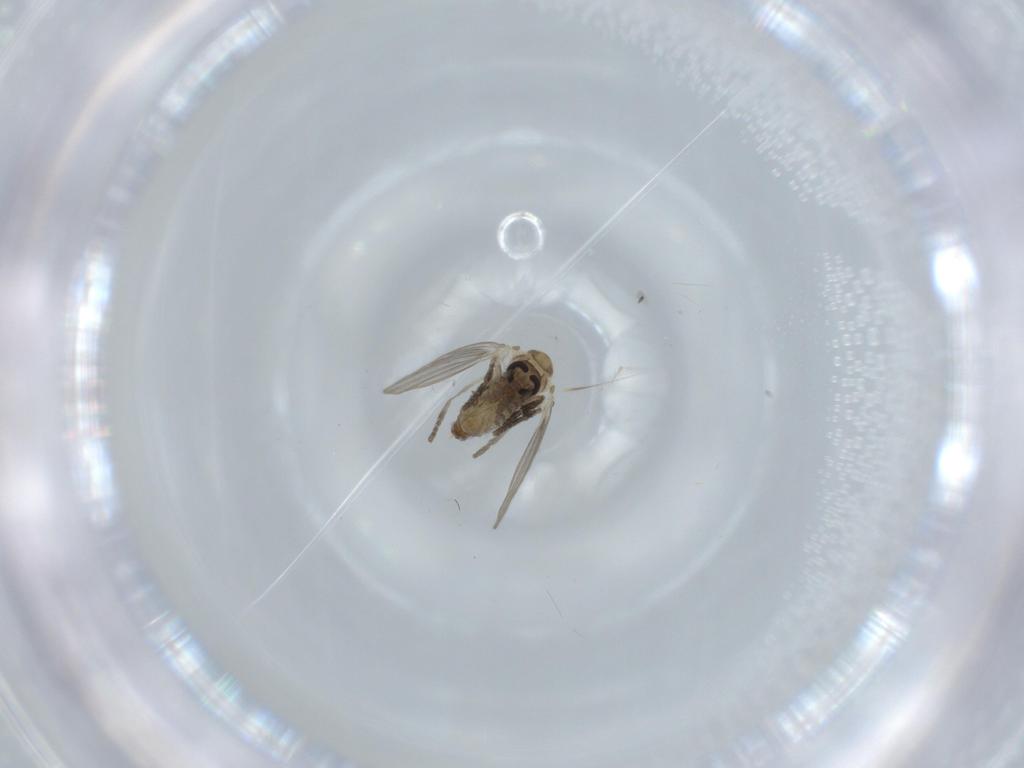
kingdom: Animalia
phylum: Arthropoda
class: Insecta
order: Diptera
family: Psychodidae
